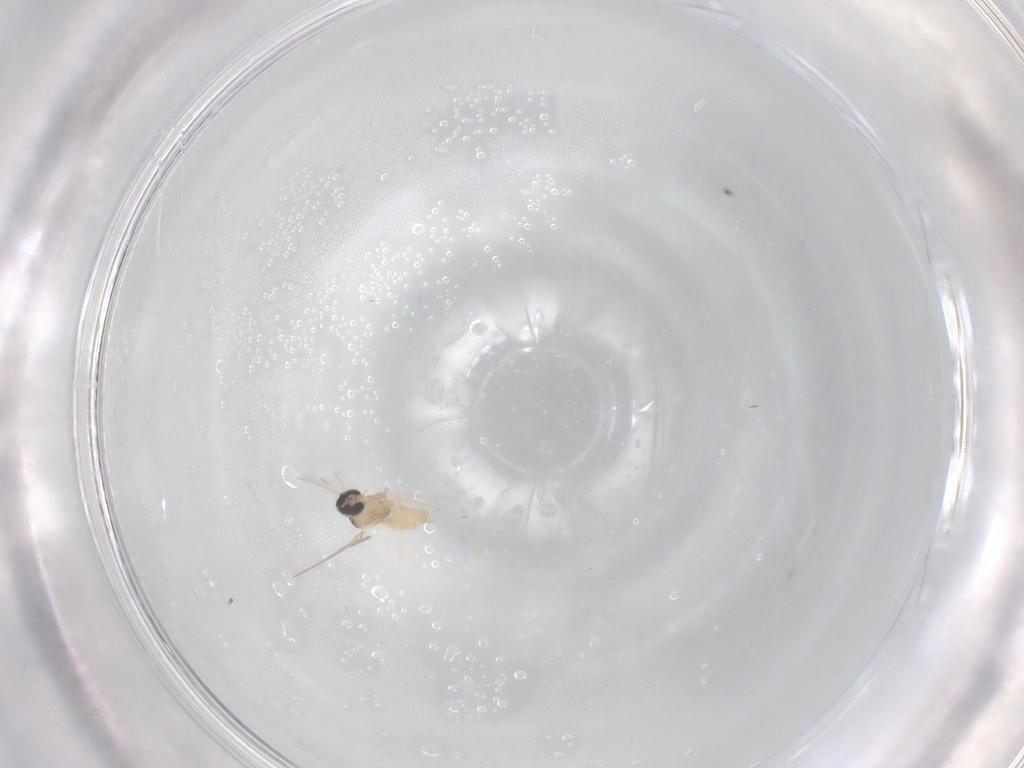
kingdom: Animalia
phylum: Arthropoda
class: Insecta
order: Diptera
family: Cecidomyiidae
